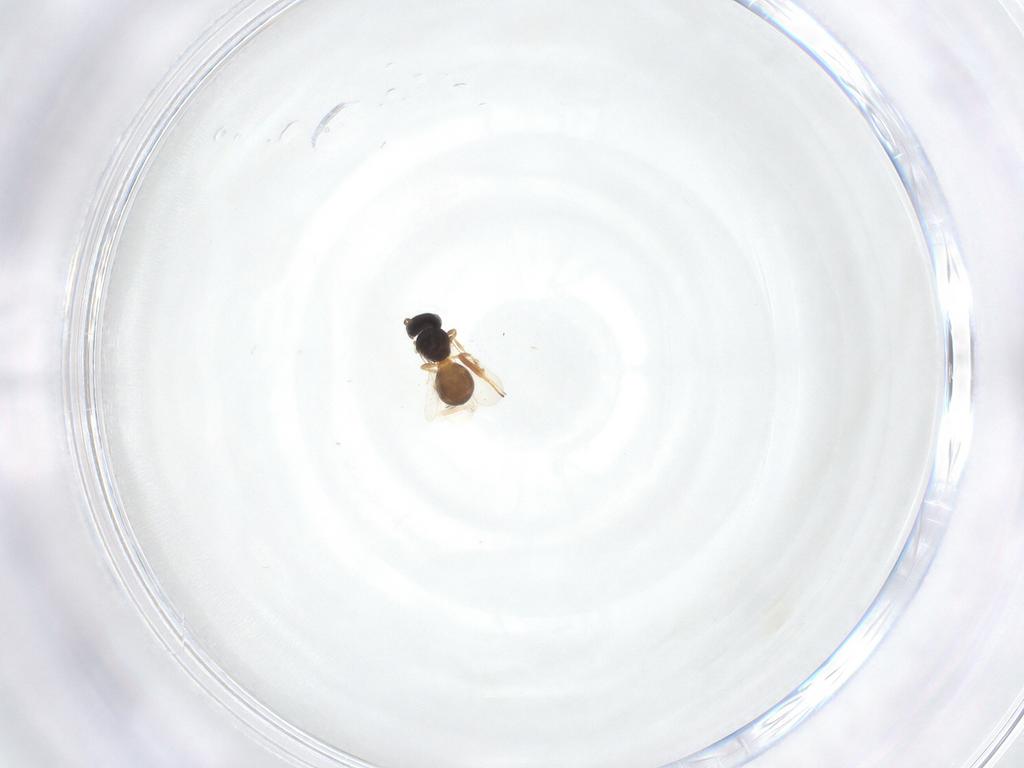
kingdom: Animalia
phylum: Arthropoda
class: Insecta
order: Hymenoptera
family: Scelionidae
